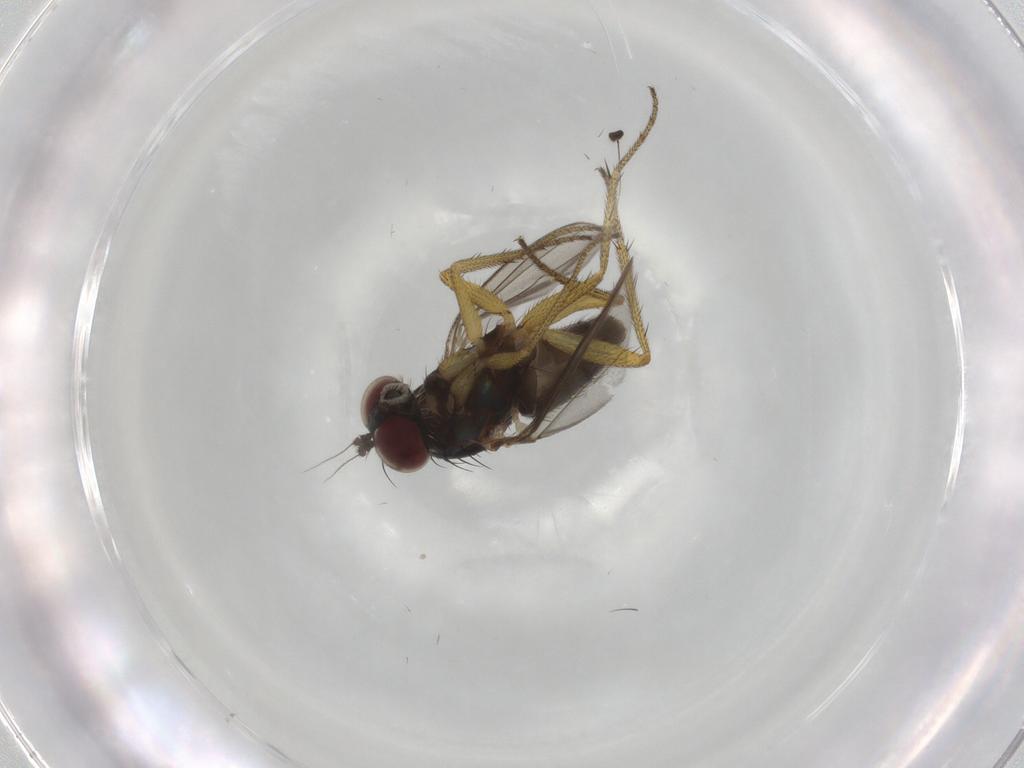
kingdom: Animalia
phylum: Arthropoda
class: Insecta
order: Diptera
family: Dolichopodidae
